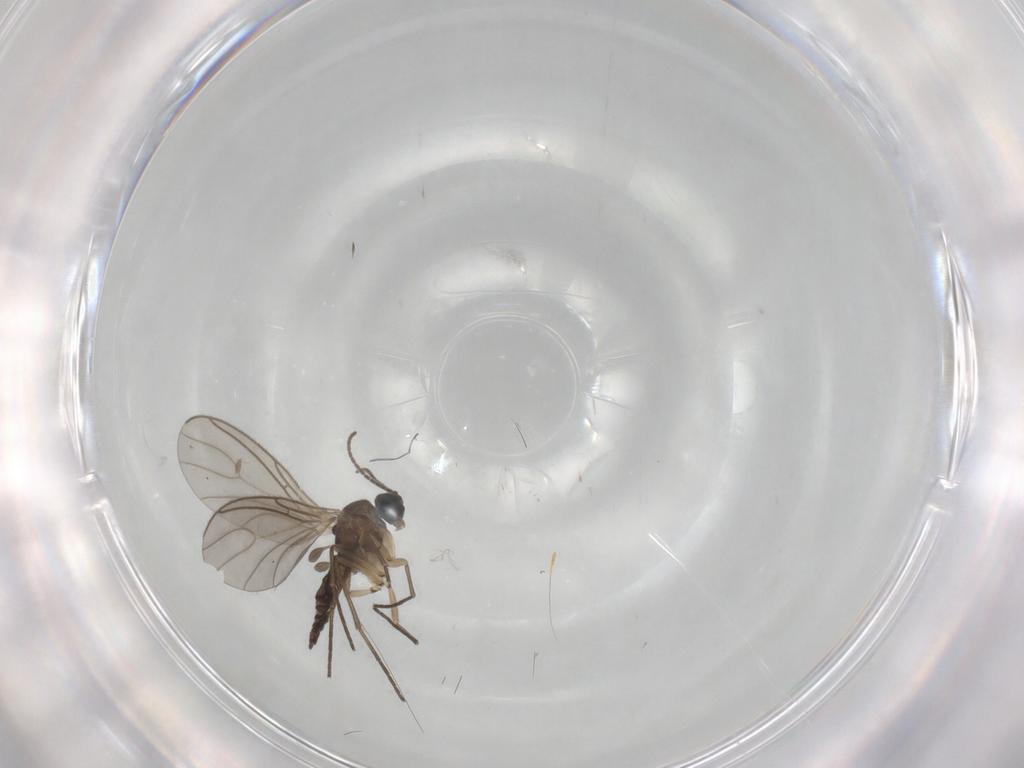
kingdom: Animalia
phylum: Arthropoda
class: Insecta
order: Diptera
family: Sciaridae
